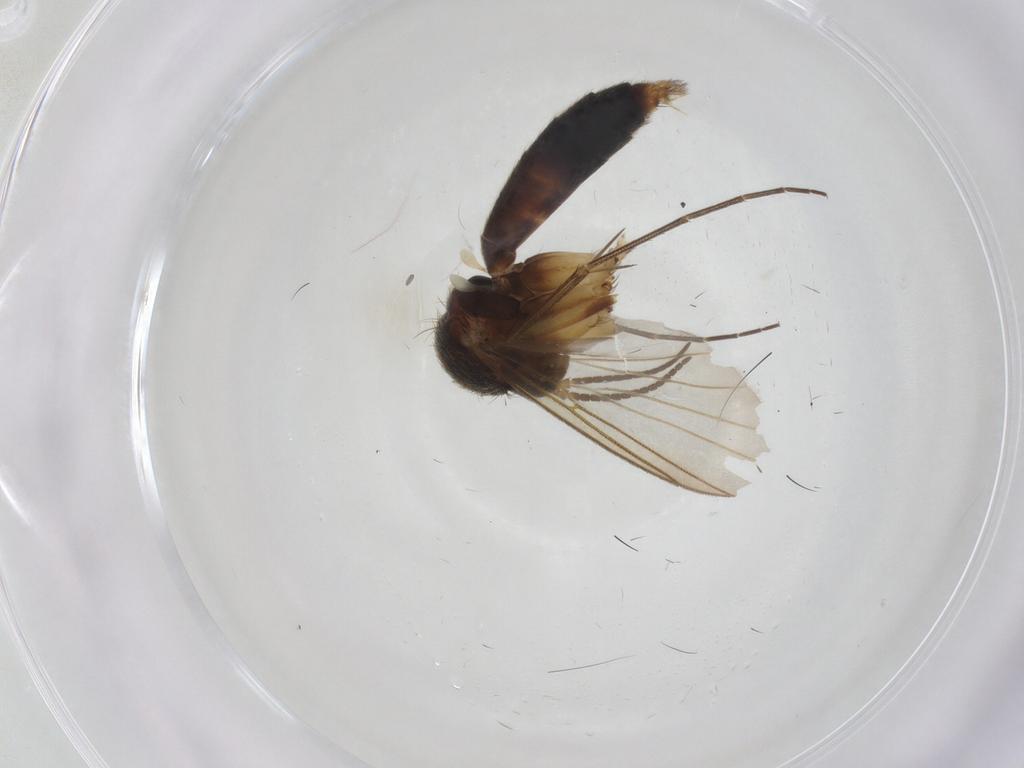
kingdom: Animalia
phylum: Arthropoda
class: Insecta
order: Diptera
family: Mycetophilidae
